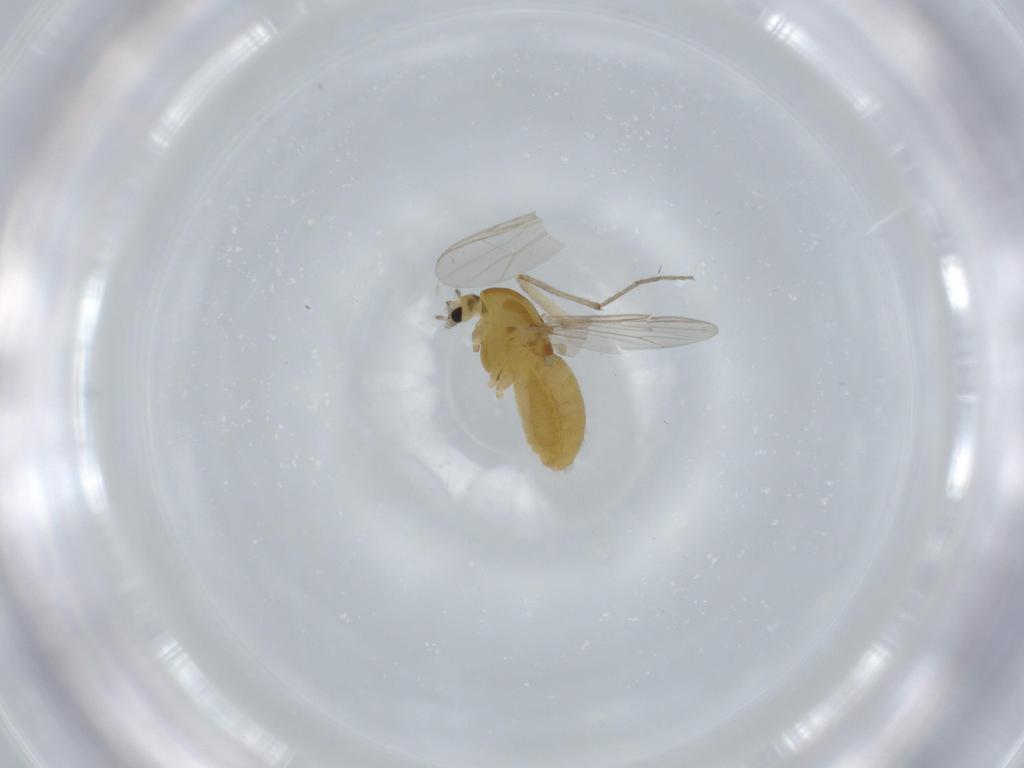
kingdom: Animalia
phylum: Arthropoda
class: Insecta
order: Diptera
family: Chironomidae
